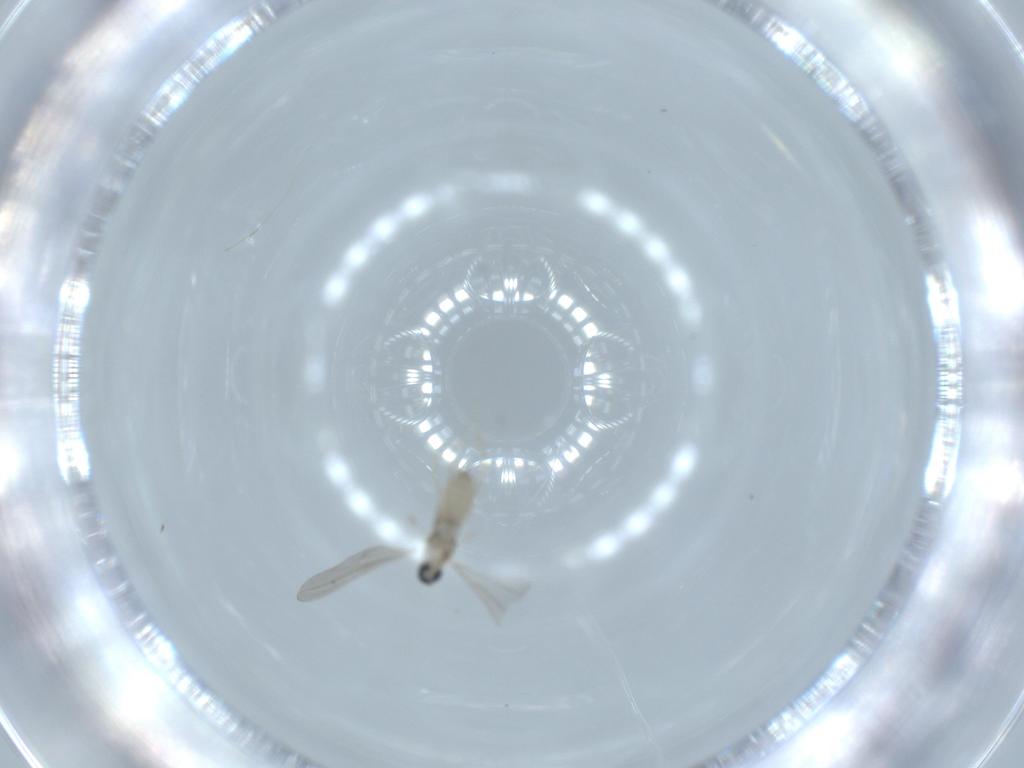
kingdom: Animalia
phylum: Arthropoda
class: Insecta
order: Diptera
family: Cecidomyiidae
